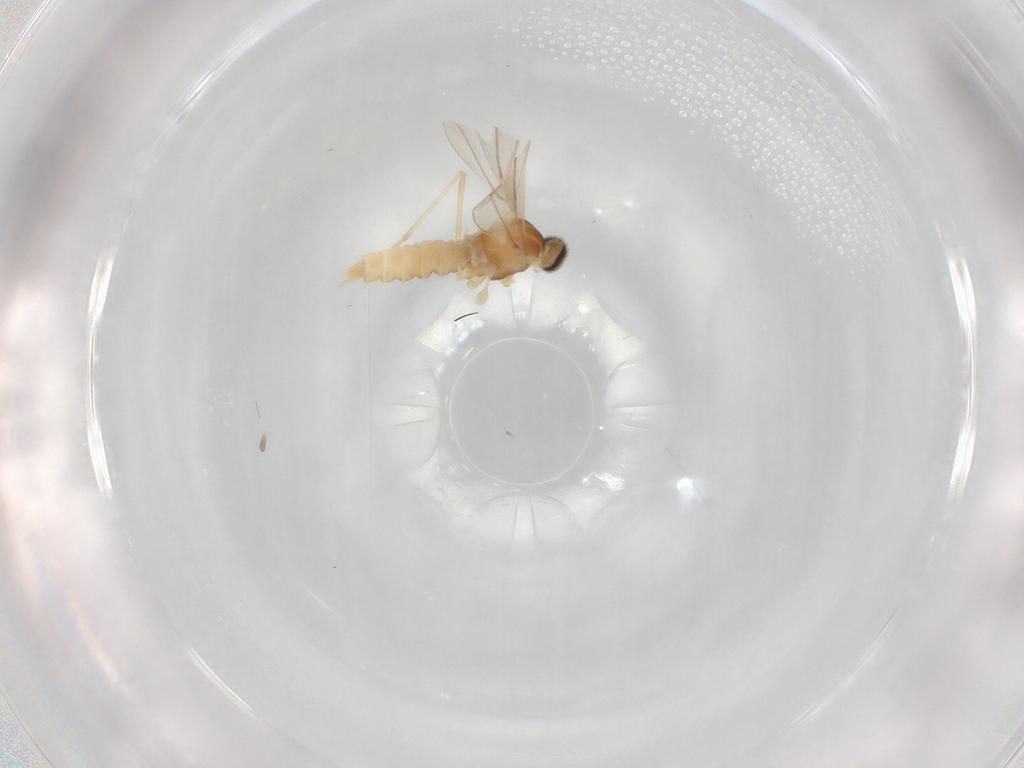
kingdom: Animalia
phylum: Arthropoda
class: Insecta
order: Diptera
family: Cecidomyiidae
